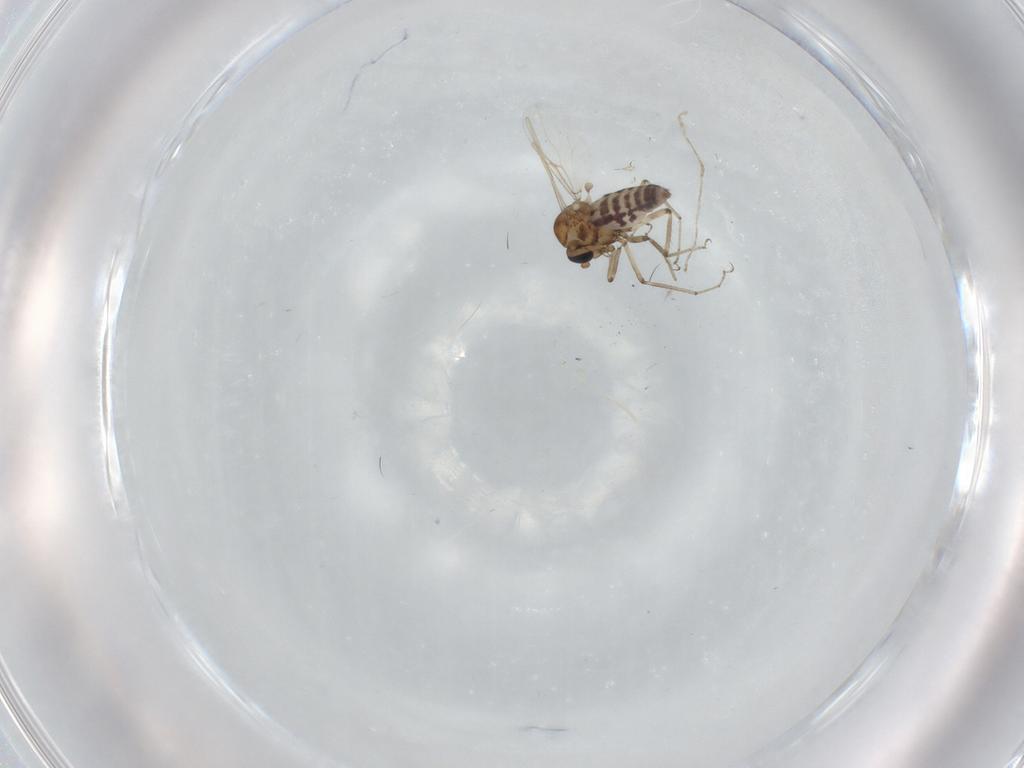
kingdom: Animalia
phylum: Arthropoda
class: Insecta
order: Diptera
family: Ceratopogonidae
